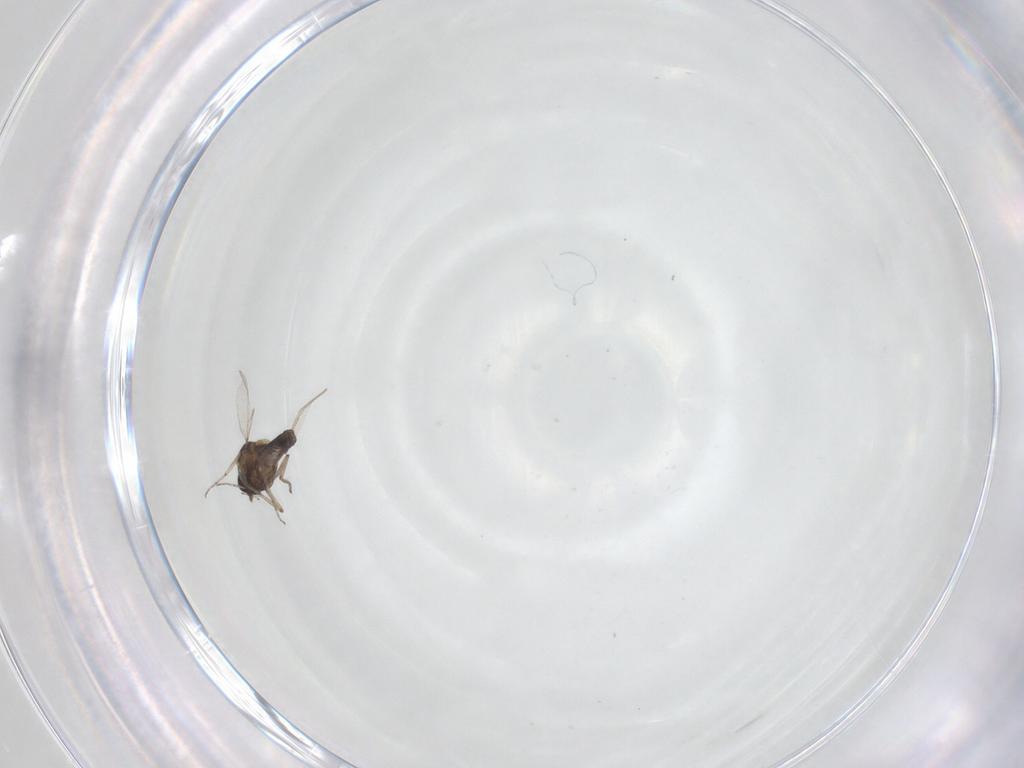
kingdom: Animalia
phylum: Arthropoda
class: Insecta
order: Diptera
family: Ceratopogonidae
